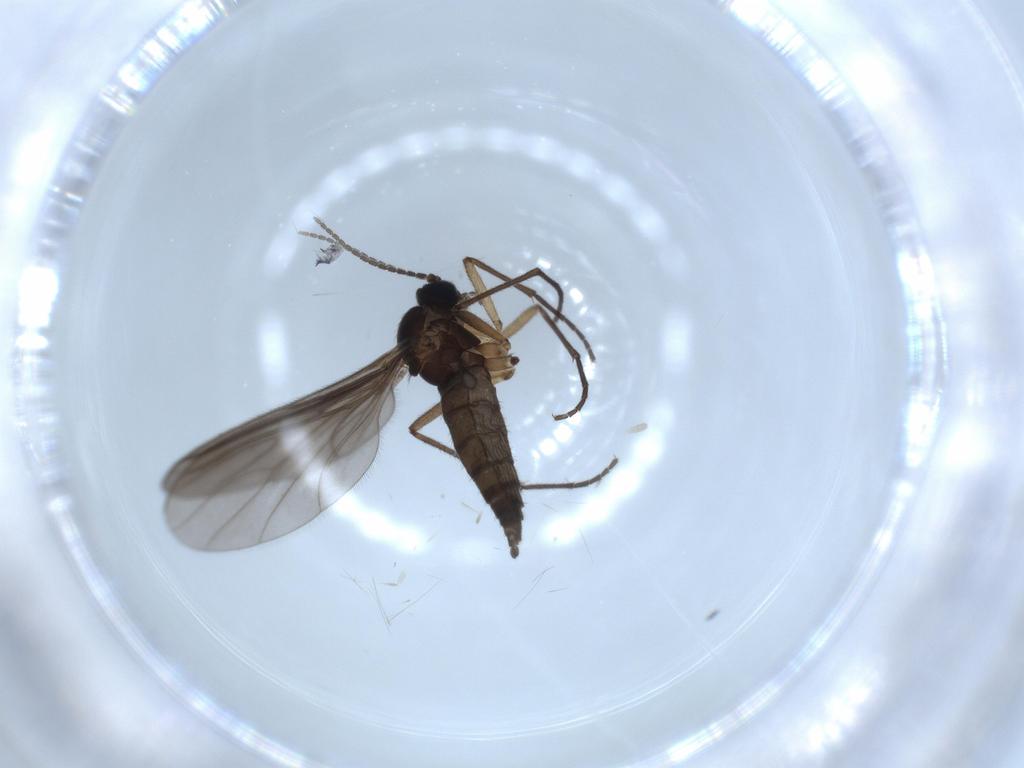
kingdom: Animalia
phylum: Arthropoda
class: Insecta
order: Diptera
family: Sciaridae
